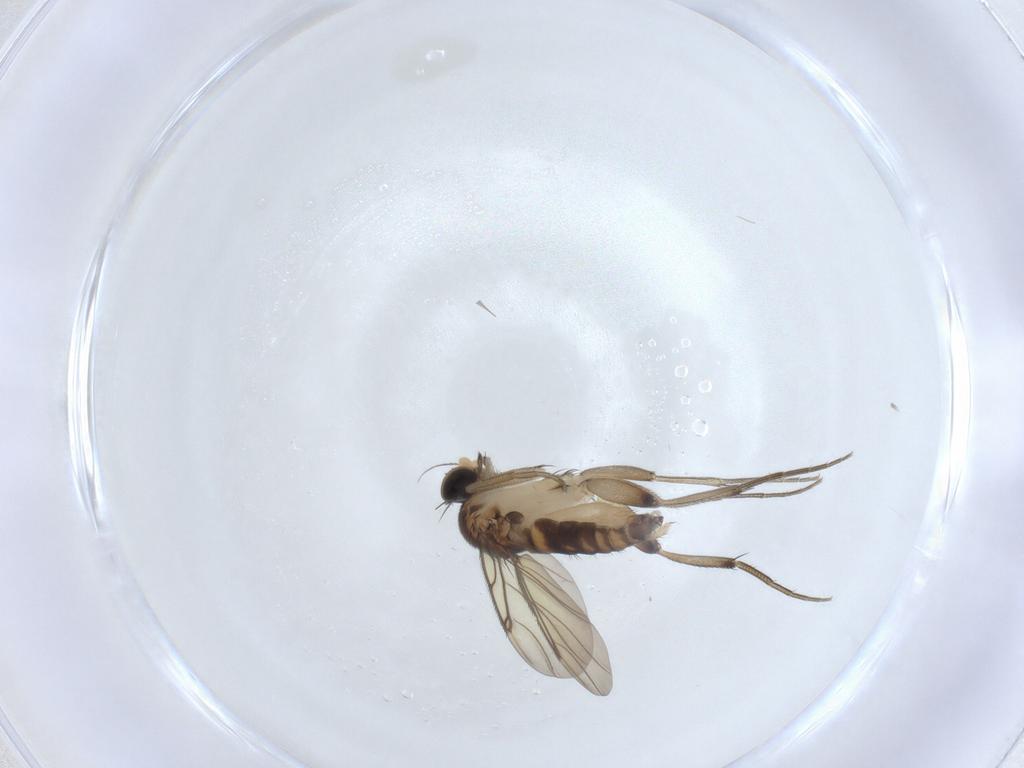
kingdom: Animalia
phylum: Arthropoda
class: Insecta
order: Diptera
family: Phoridae
